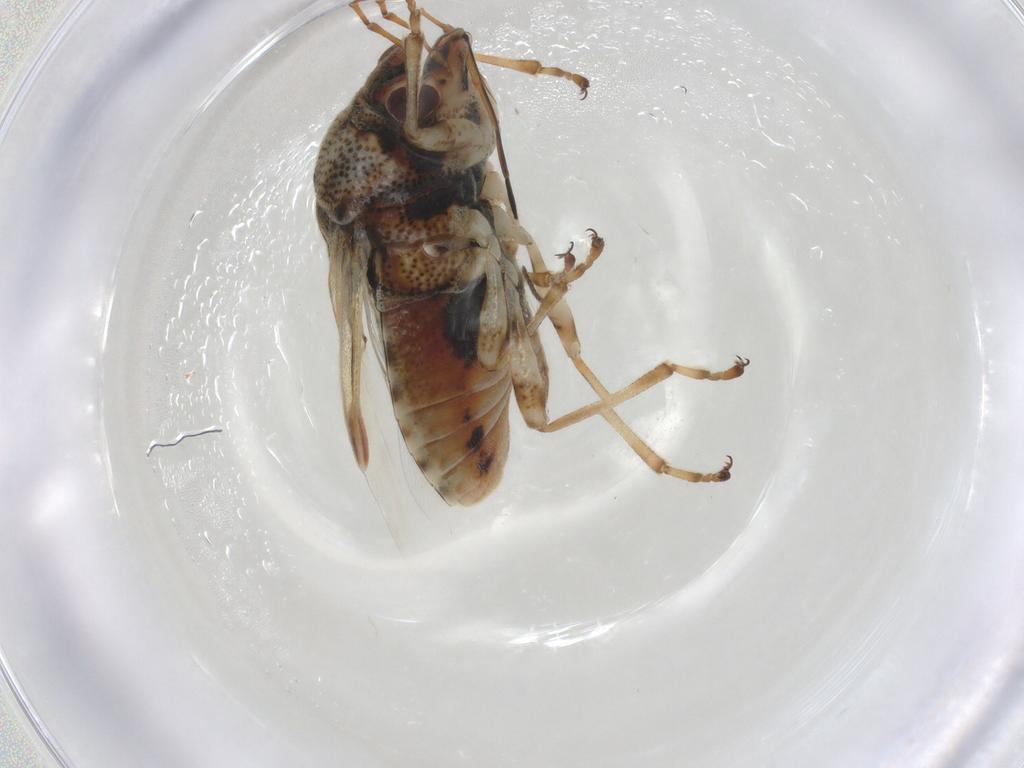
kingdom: Animalia
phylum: Arthropoda
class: Insecta
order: Hemiptera
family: Lygaeidae
